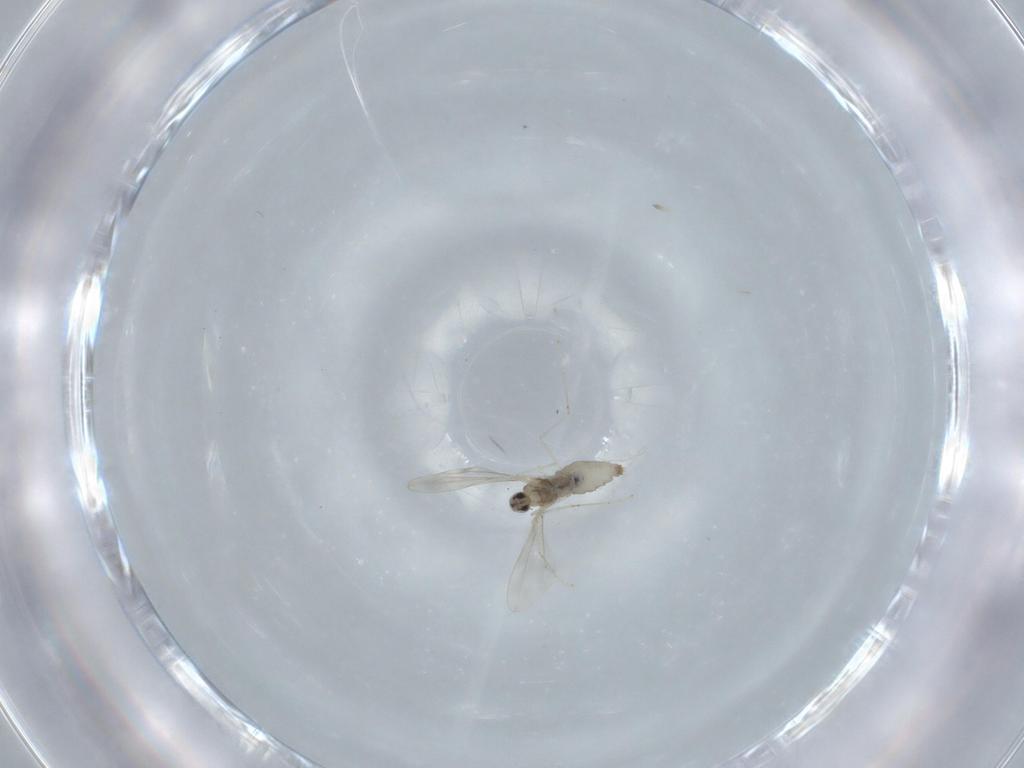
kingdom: Animalia
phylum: Arthropoda
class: Insecta
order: Diptera
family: Cecidomyiidae
